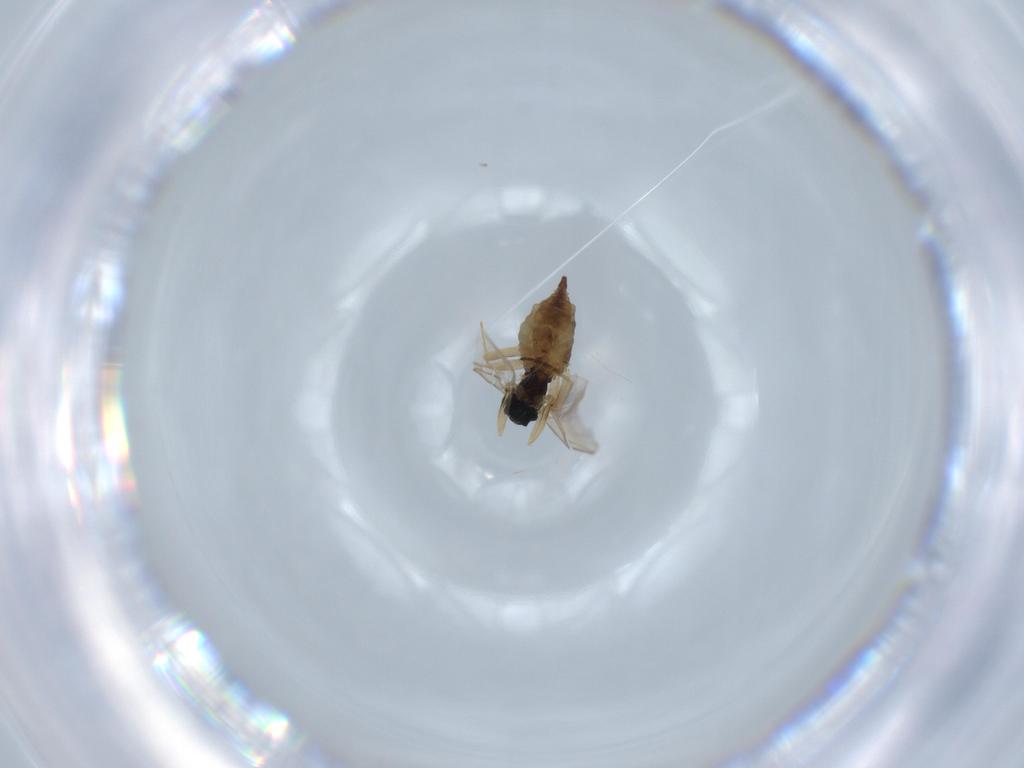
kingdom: Animalia
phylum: Arthropoda
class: Insecta
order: Diptera
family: Sciaridae
